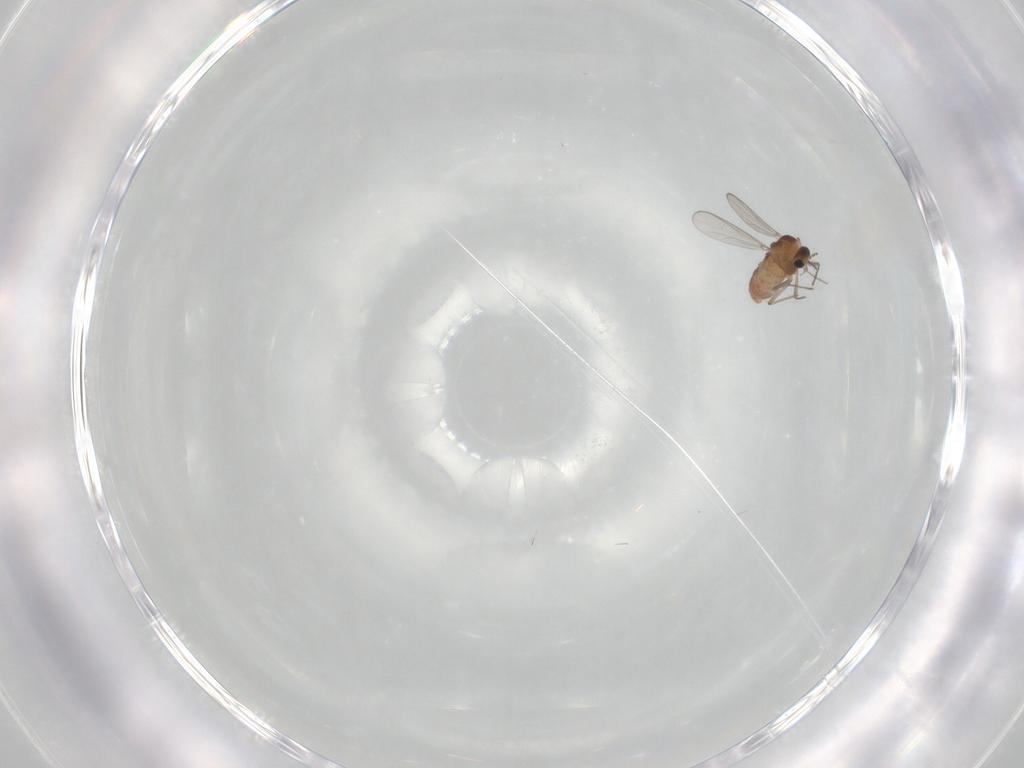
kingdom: Animalia
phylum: Arthropoda
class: Insecta
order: Diptera
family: Chironomidae
